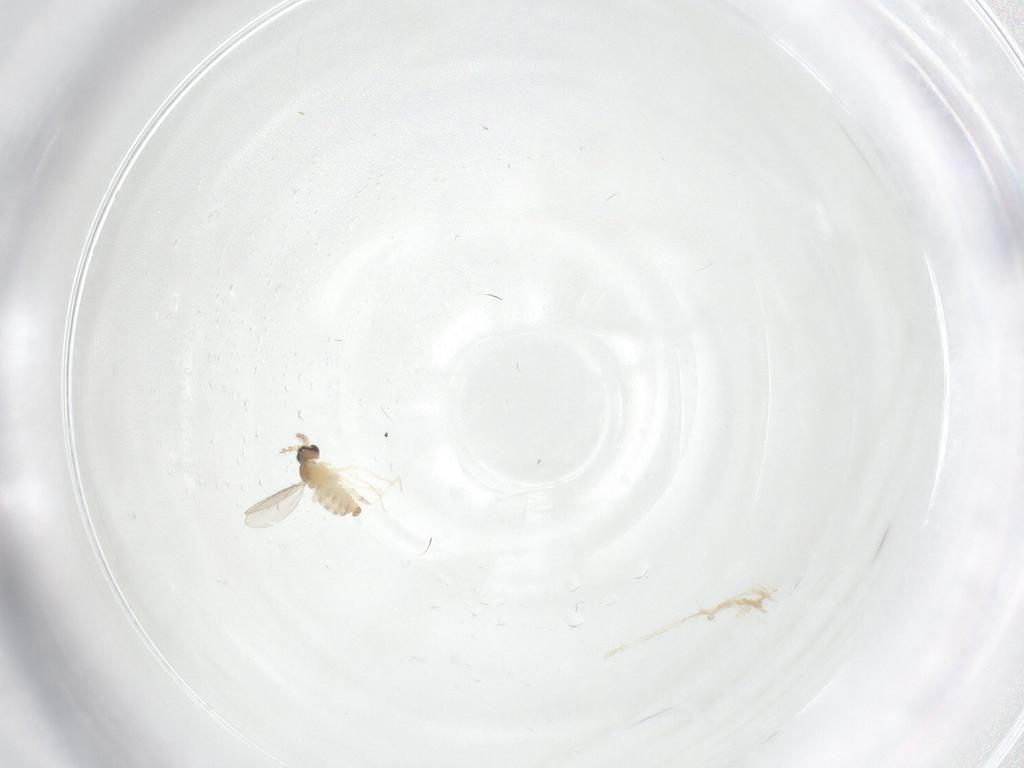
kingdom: Animalia
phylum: Arthropoda
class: Insecta
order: Diptera
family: Cecidomyiidae
